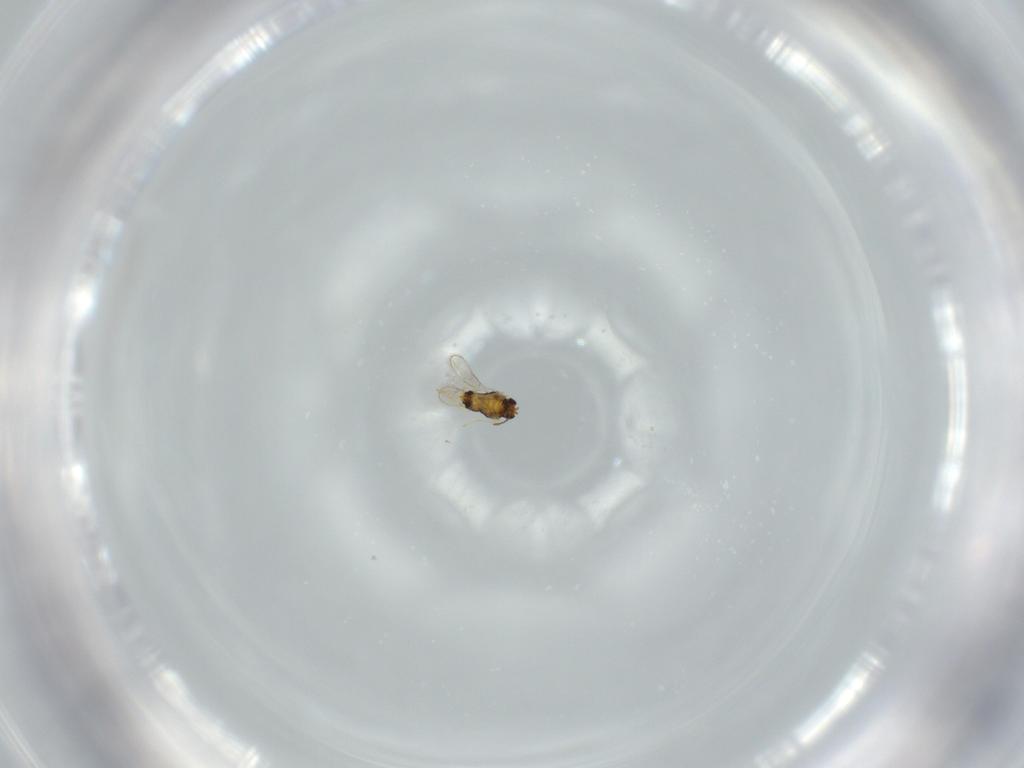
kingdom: Animalia
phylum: Arthropoda
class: Insecta
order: Hymenoptera
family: Aphelinidae
